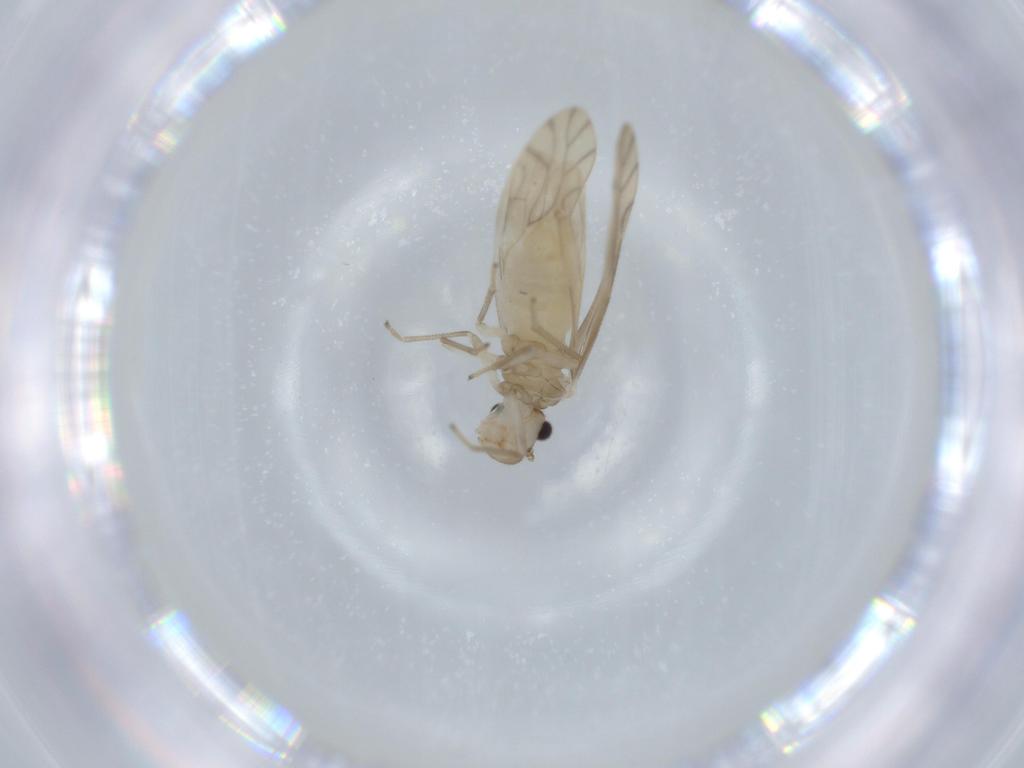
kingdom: Animalia
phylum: Arthropoda
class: Insecta
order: Psocodea
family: Caeciliusidae
